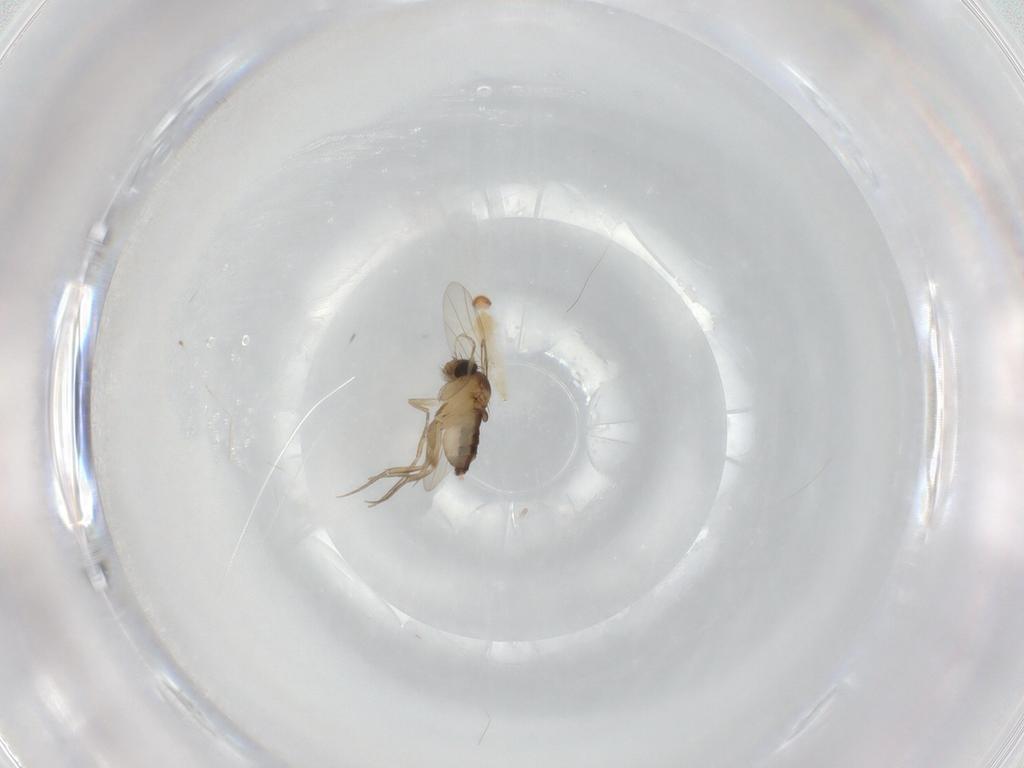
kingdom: Animalia
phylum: Arthropoda
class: Insecta
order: Diptera
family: Phoridae
